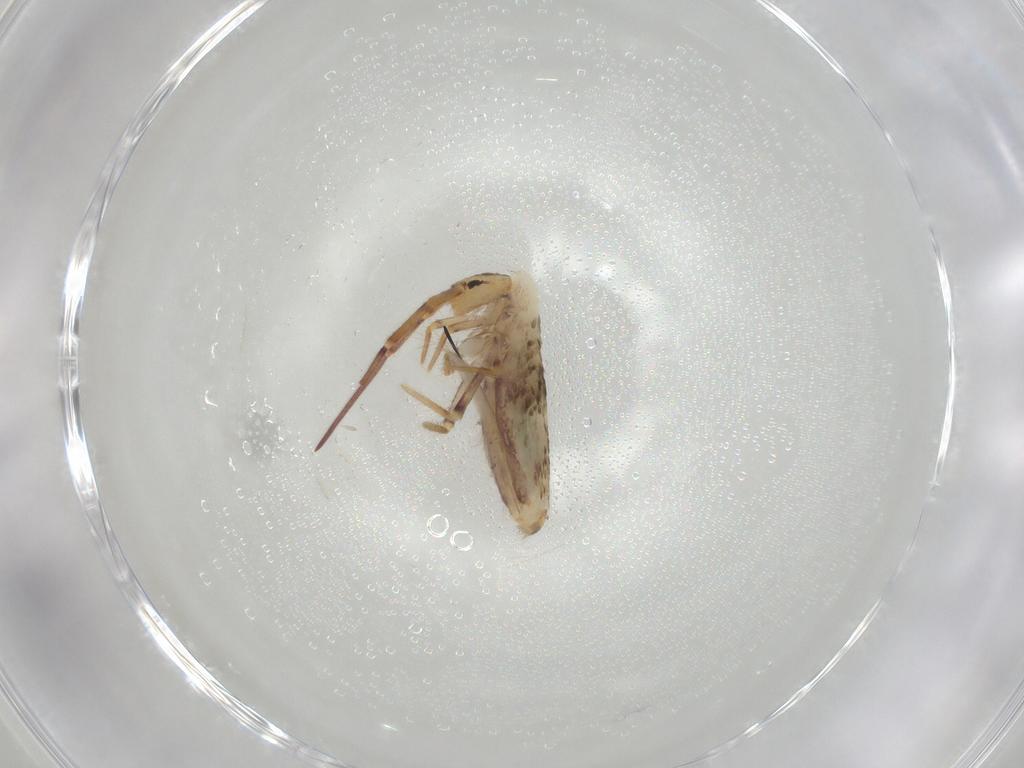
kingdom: Animalia
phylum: Arthropoda
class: Collembola
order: Poduromorpha
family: Hypogastruridae
